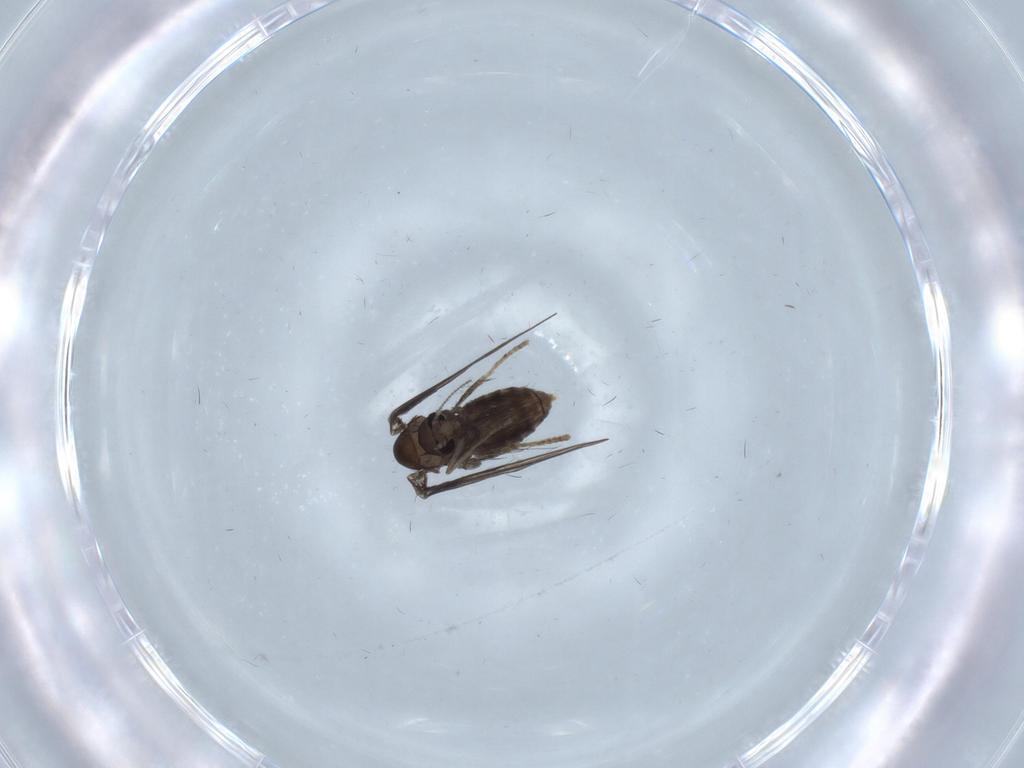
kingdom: Animalia
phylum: Arthropoda
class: Insecta
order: Diptera
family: Psychodidae
